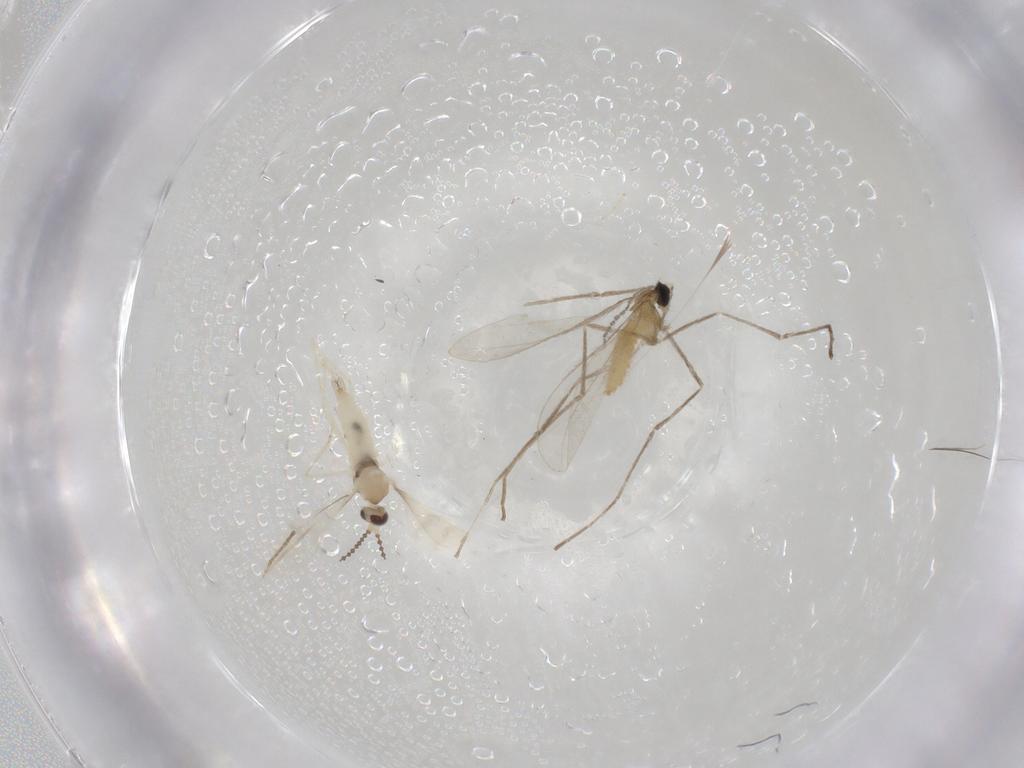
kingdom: Animalia
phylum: Arthropoda
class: Insecta
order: Diptera
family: Cecidomyiidae
